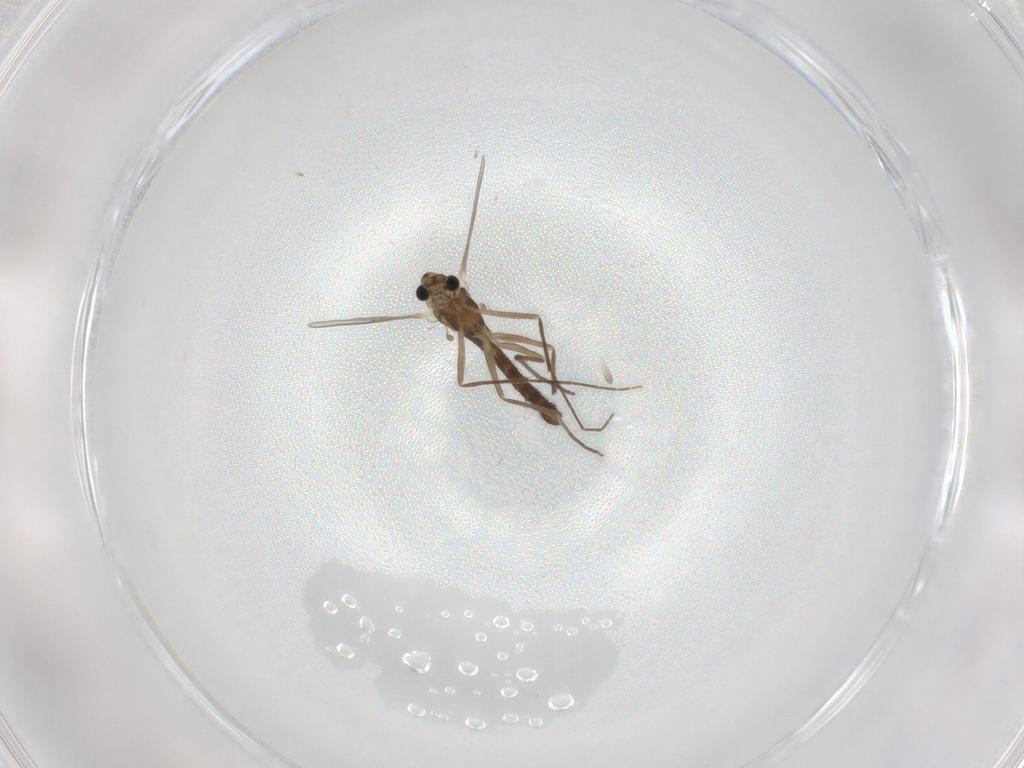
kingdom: Animalia
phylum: Arthropoda
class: Insecta
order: Diptera
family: Chironomidae
